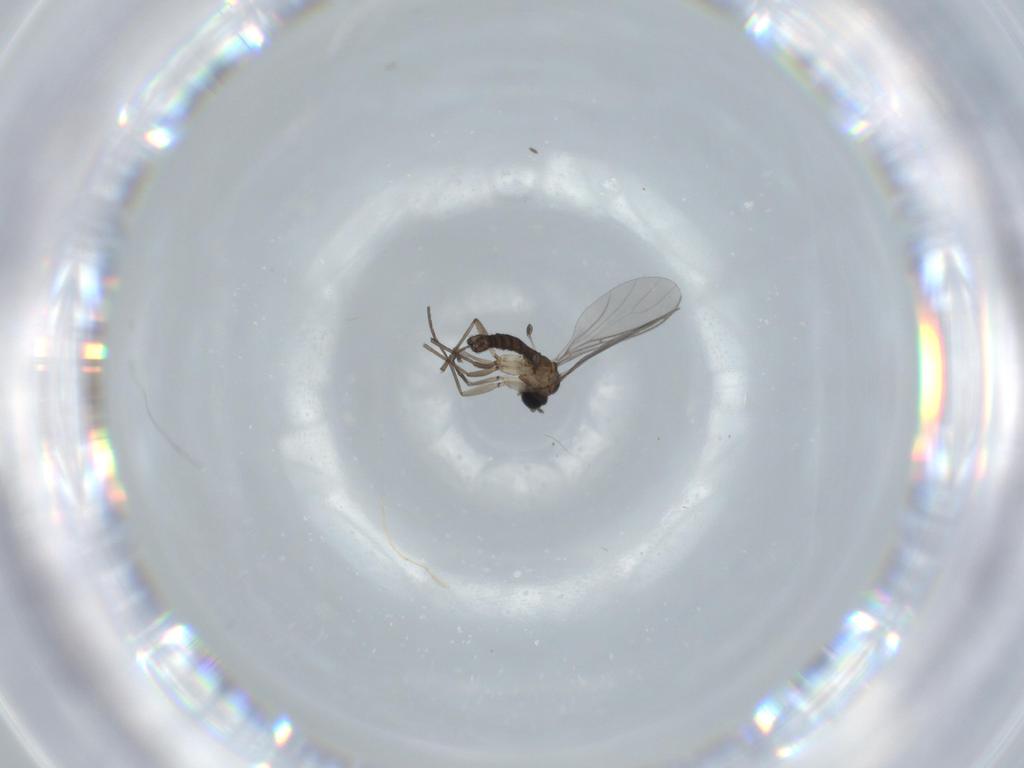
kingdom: Animalia
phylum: Arthropoda
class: Insecta
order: Diptera
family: Sciaridae
